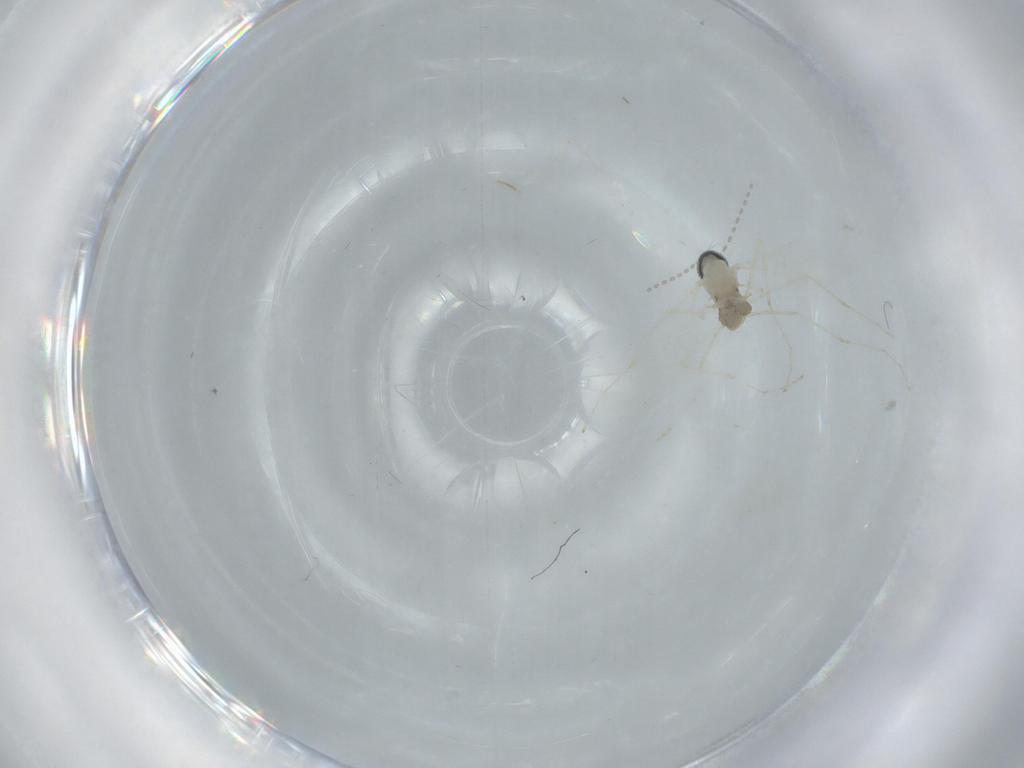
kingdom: Animalia
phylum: Arthropoda
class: Insecta
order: Diptera
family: Cecidomyiidae
